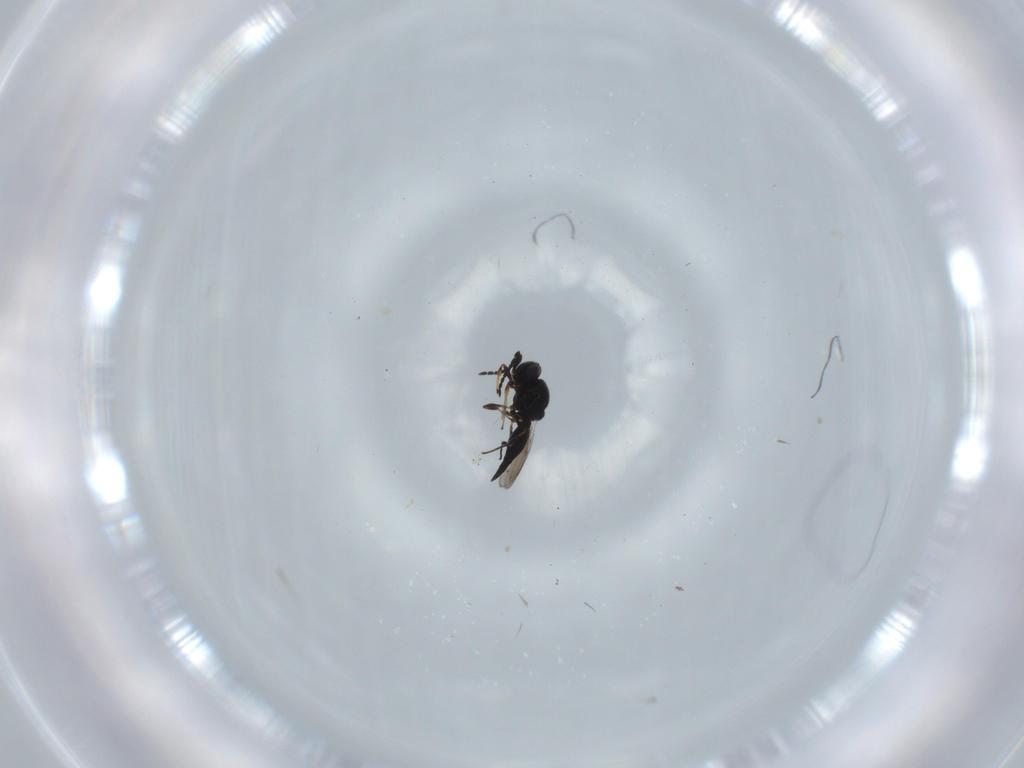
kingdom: Animalia
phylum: Arthropoda
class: Insecta
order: Hymenoptera
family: Platygastridae
